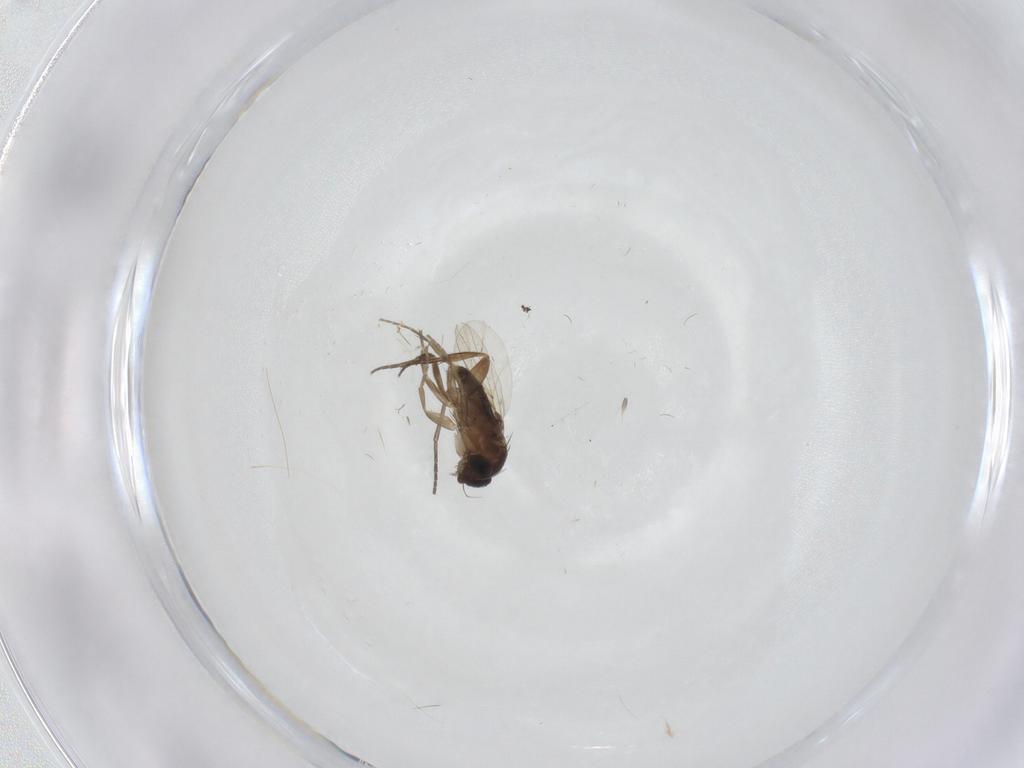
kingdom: Animalia
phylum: Arthropoda
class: Insecta
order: Diptera
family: Phoridae
